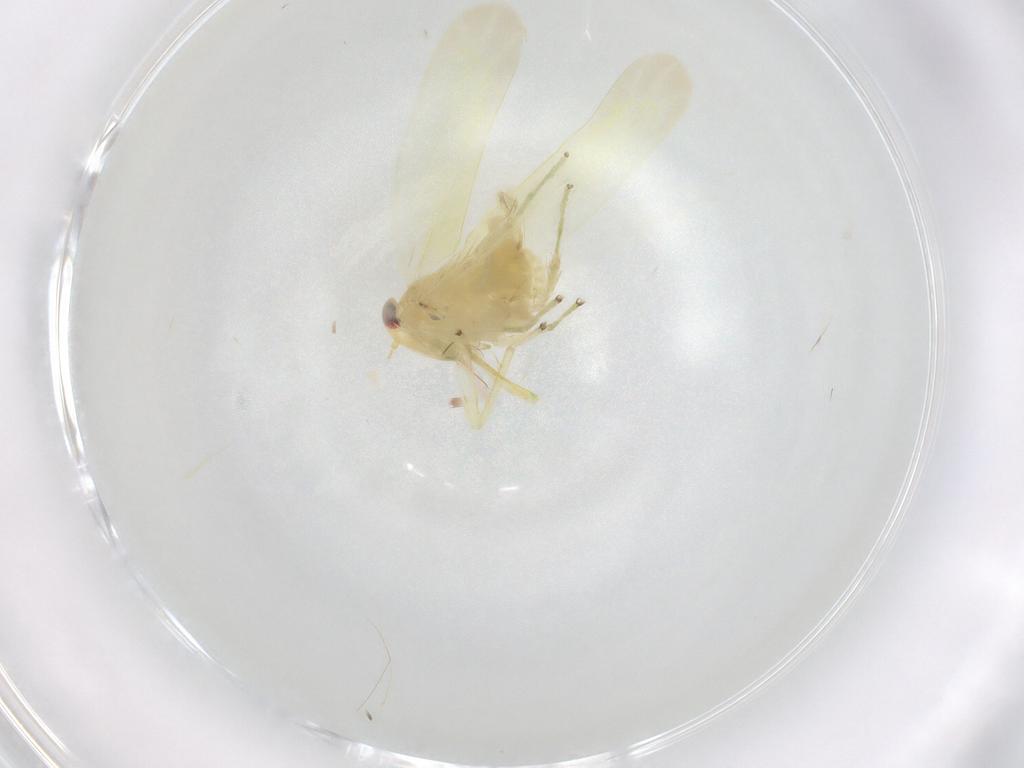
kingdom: Animalia
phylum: Arthropoda
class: Insecta
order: Hemiptera
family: Cicadellidae
